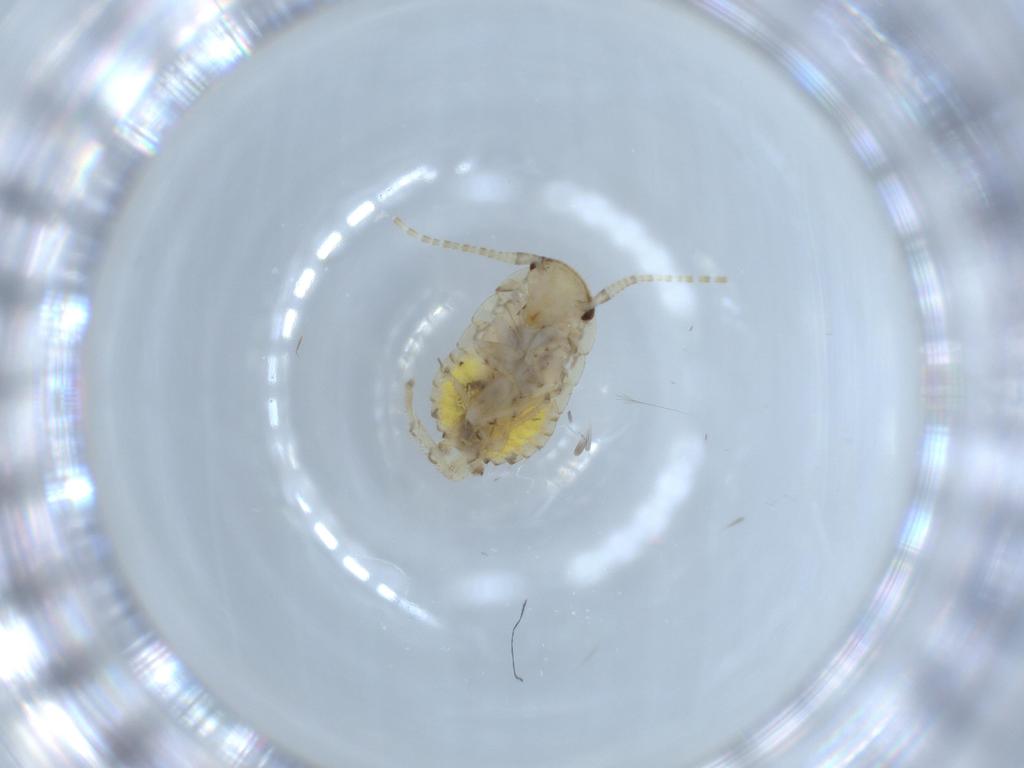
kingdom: Animalia
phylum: Arthropoda
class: Insecta
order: Blattodea
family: Ectobiidae
